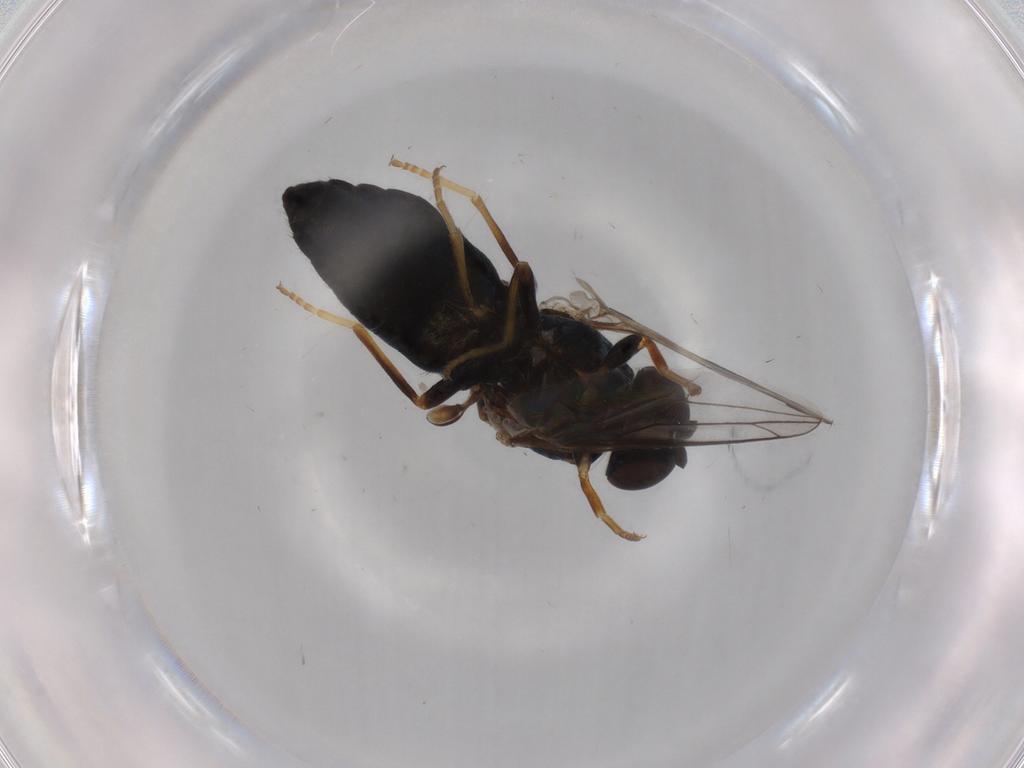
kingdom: Animalia
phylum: Arthropoda
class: Insecta
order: Diptera
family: Scenopinidae
